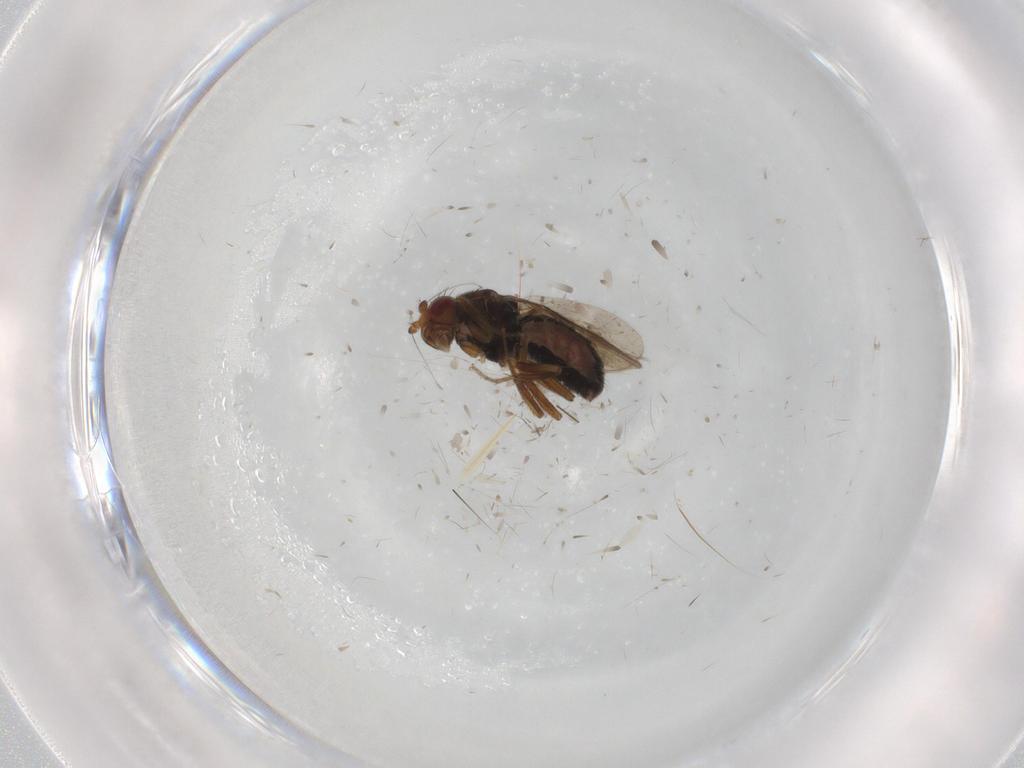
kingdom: Animalia
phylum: Arthropoda
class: Insecta
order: Diptera
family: Sphaeroceridae
